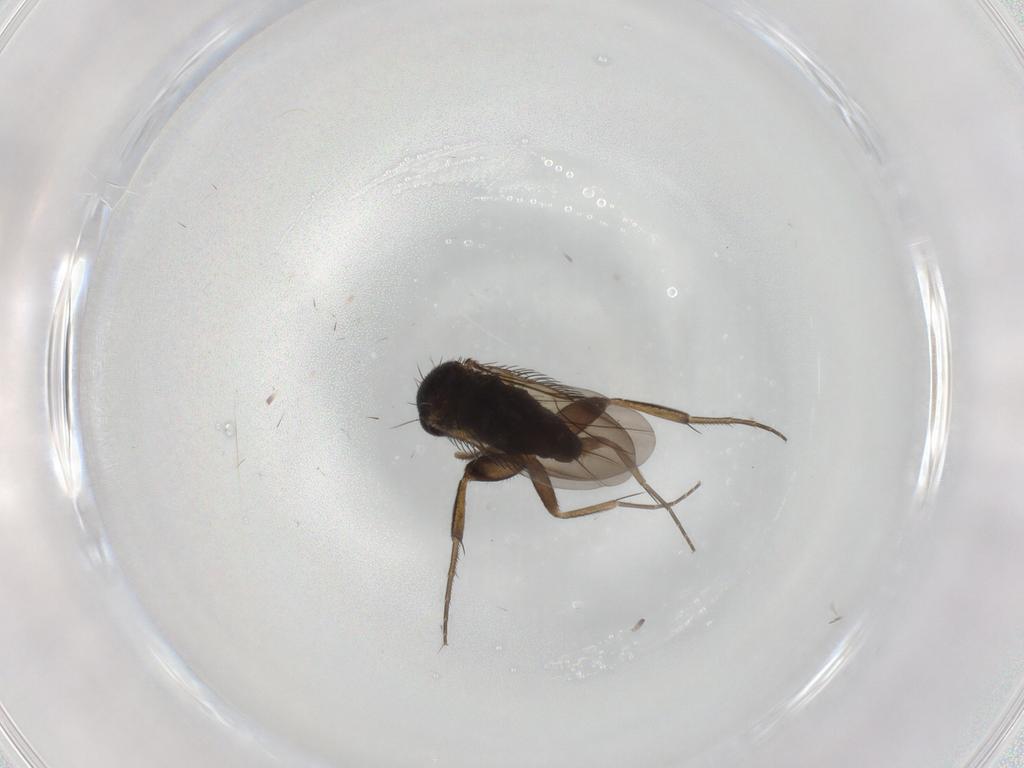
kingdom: Animalia
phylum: Arthropoda
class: Insecta
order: Diptera
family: Phoridae
